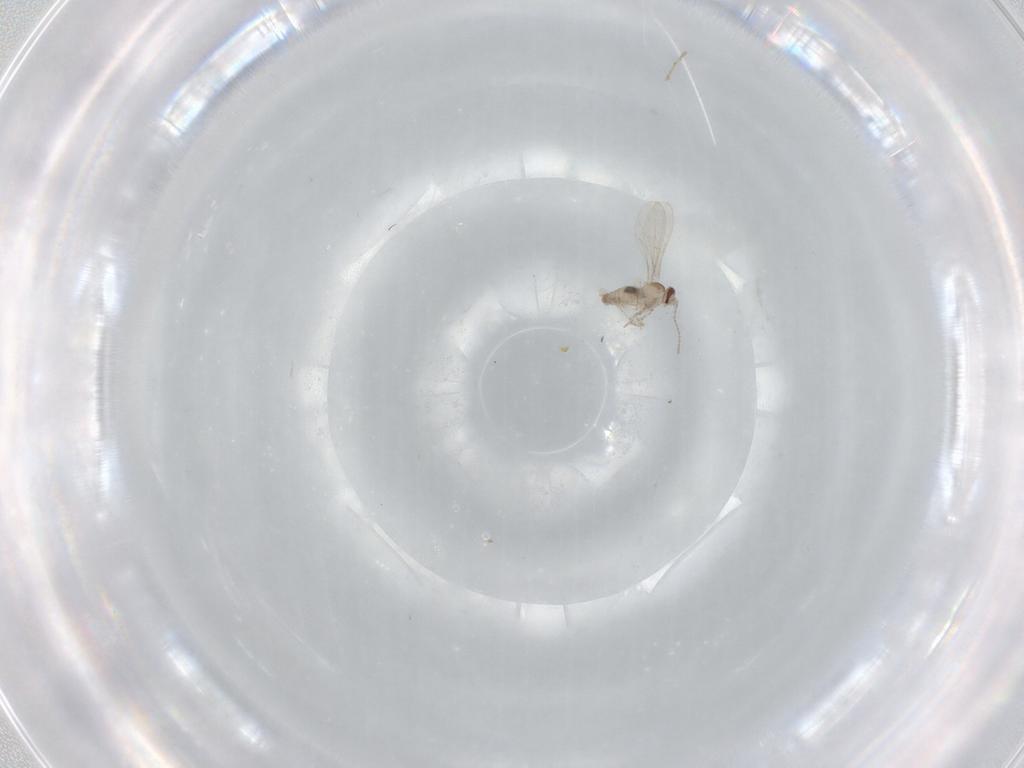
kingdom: Animalia
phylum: Arthropoda
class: Insecta
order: Diptera
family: Cecidomyiidae
